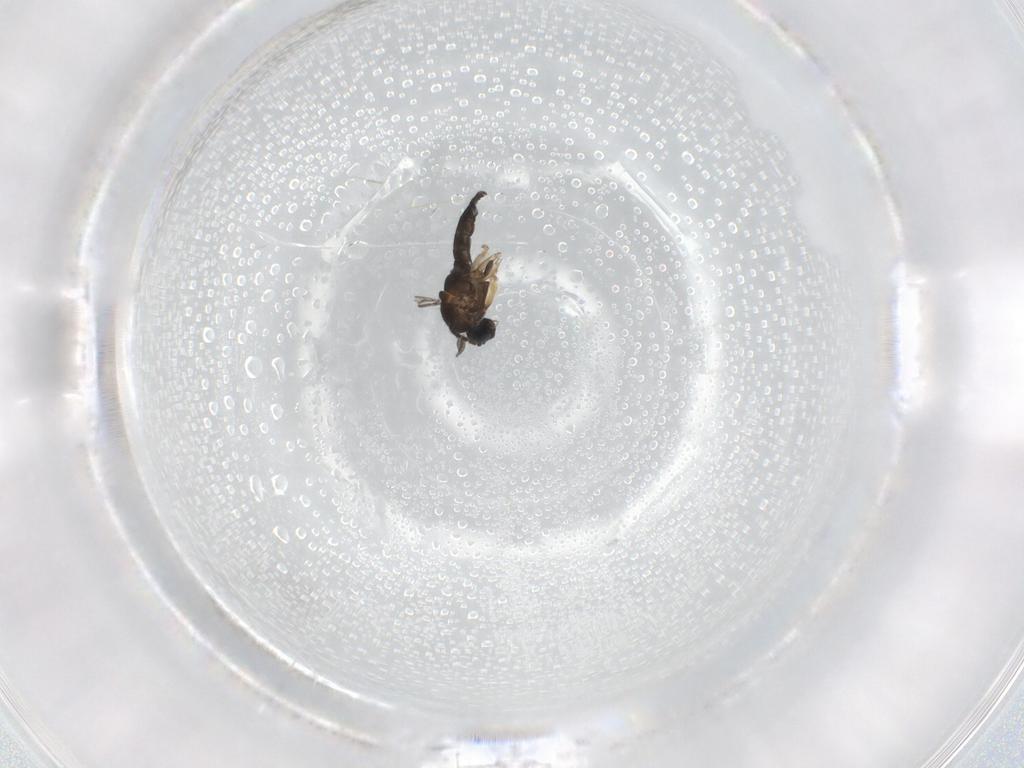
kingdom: Animalia
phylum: Arthropoda
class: Insecta
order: Diptera
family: Sciaridae
